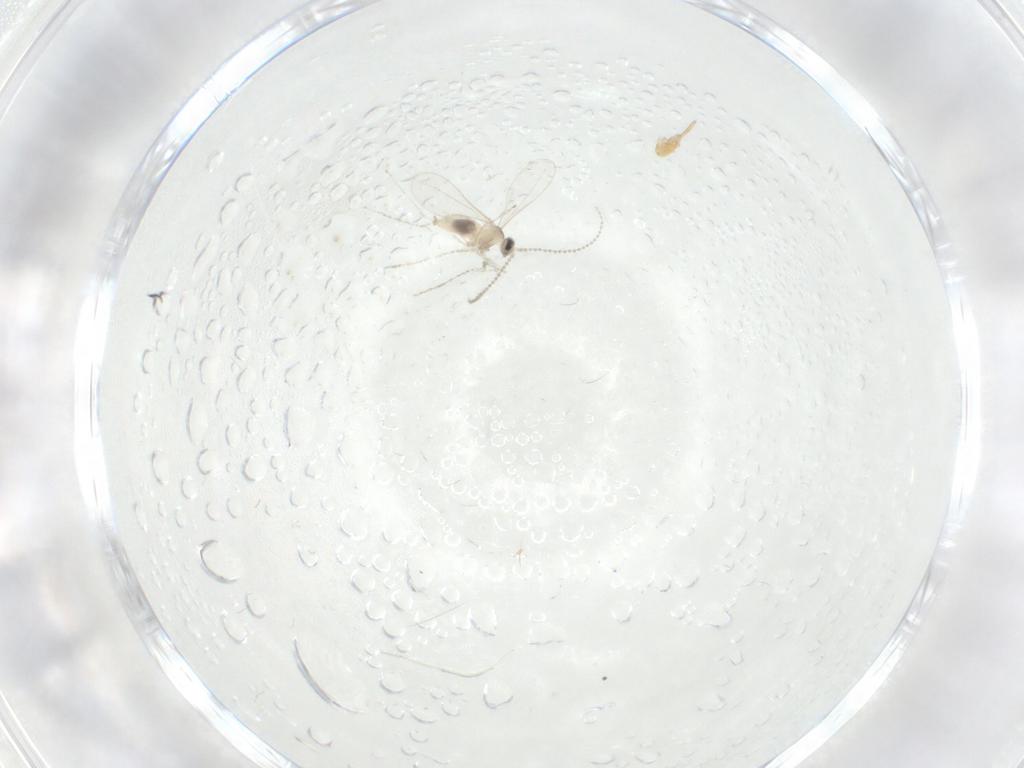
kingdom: Animalia
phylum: Arthropoda
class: Insecta
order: Diptera
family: Cecidomyiidae
